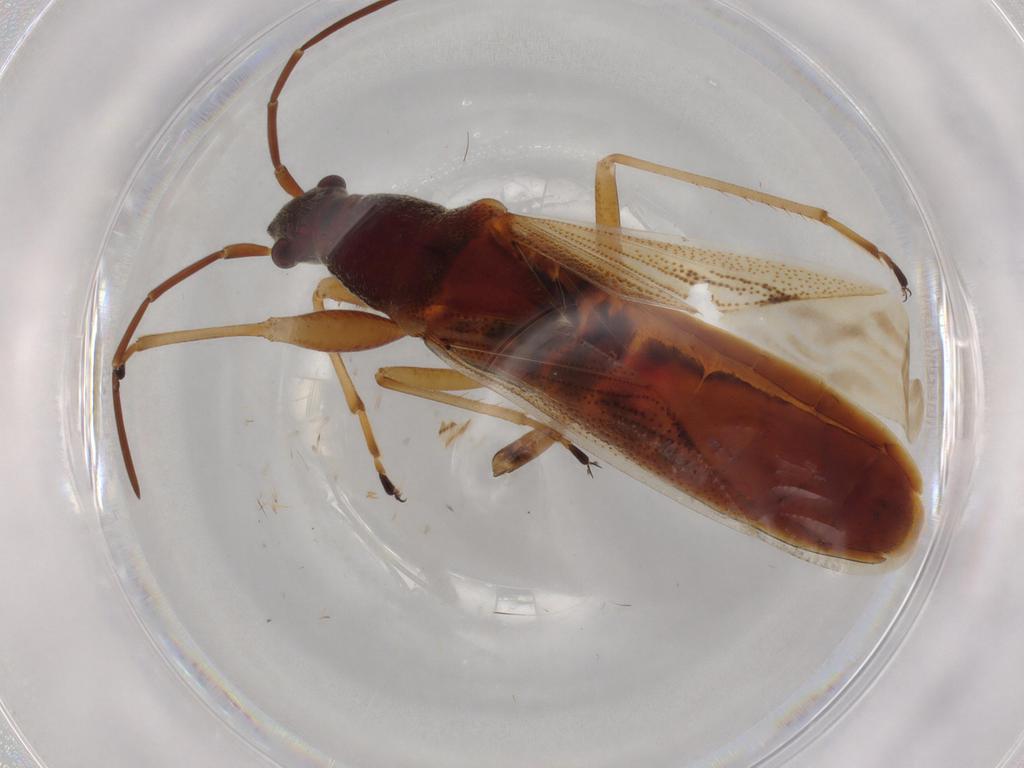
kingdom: Animalia
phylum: Arthropoda
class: Insecta
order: Hemiptera
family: Rhyparochromidae
